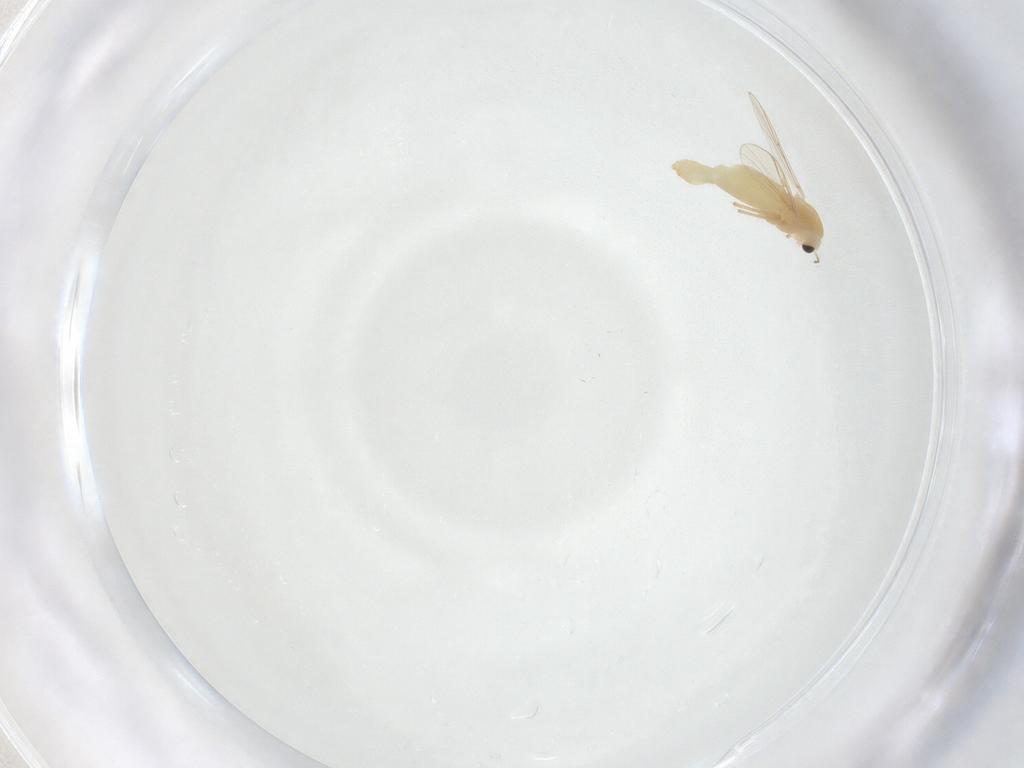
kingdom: Animalia
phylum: Arthropoda
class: Insecta
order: Diptera
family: Chironomidae
